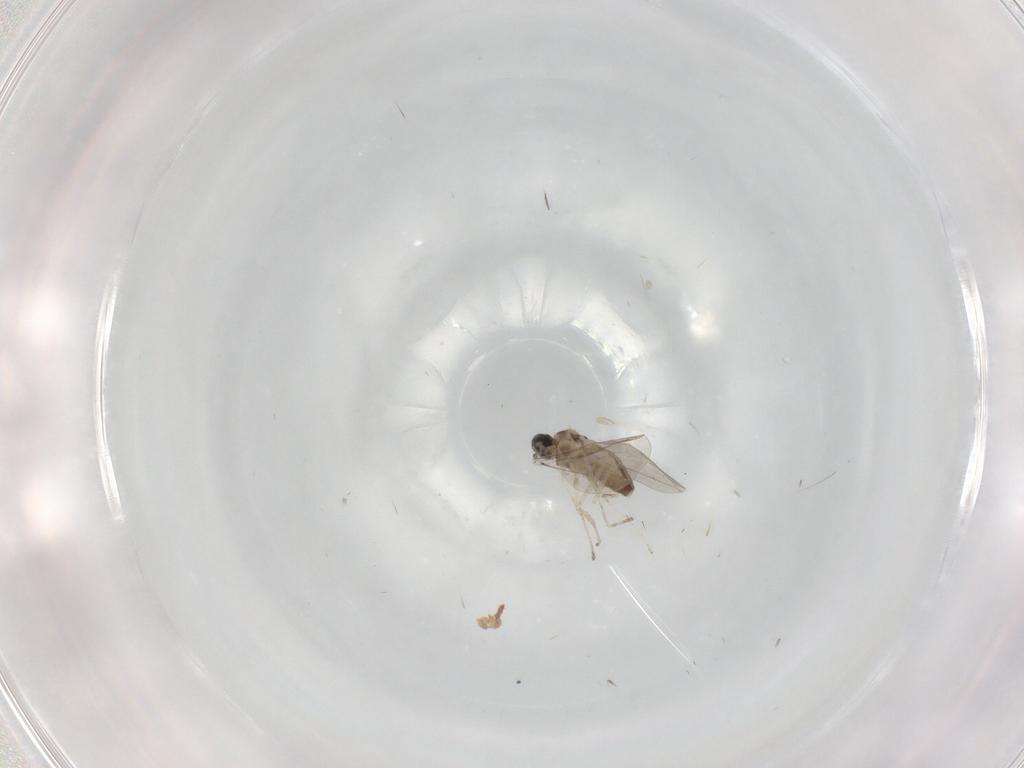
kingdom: Animalia
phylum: Arthropoda
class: Insecta
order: Diptera
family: Cecidomyiidae
